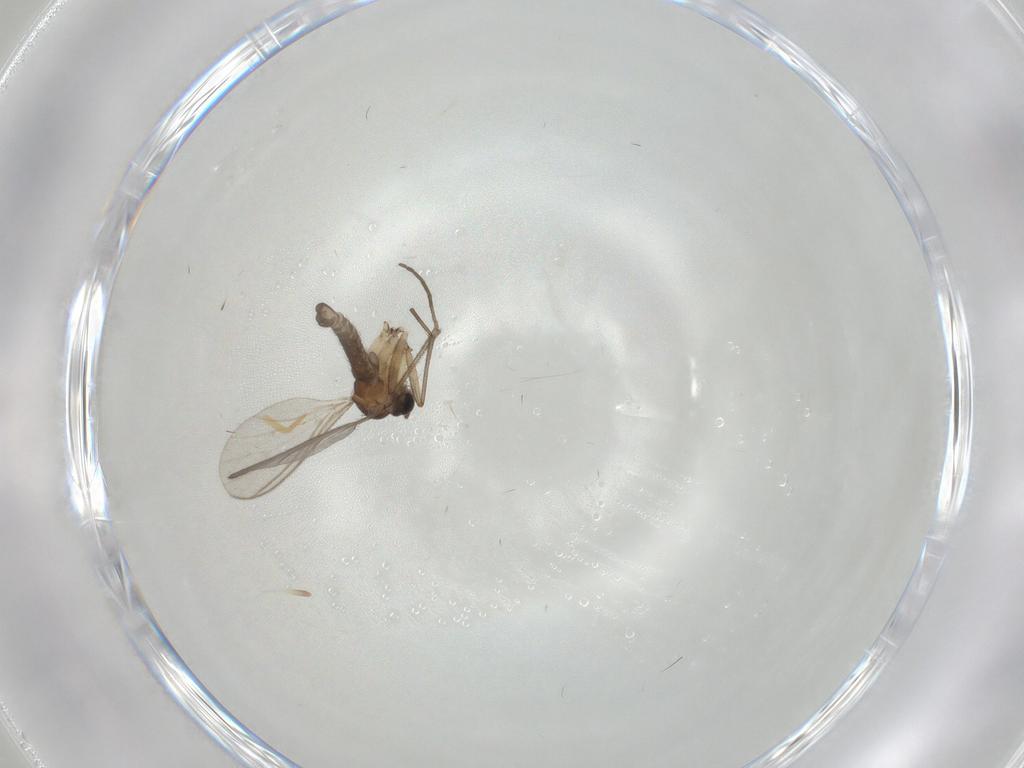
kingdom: Animalia
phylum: Arthropoda
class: Insecta
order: Diptera
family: Sciaridae
